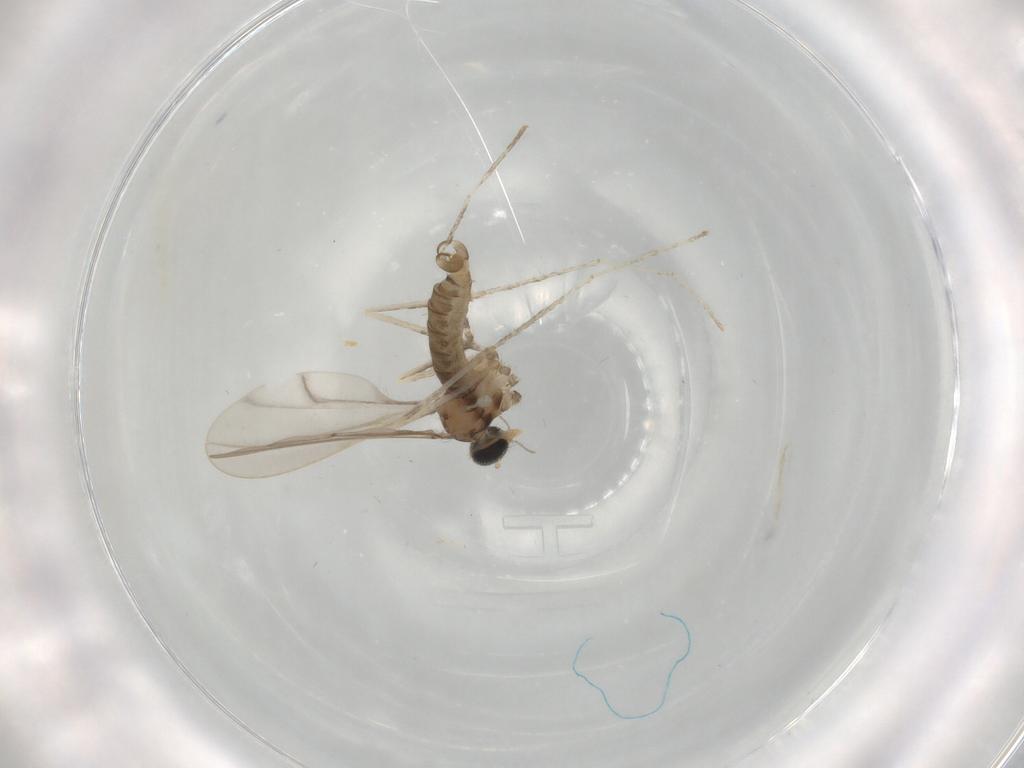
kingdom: Animalia
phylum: Arthropoda
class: Insecta
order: Diptera
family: Cecidomyiidae
